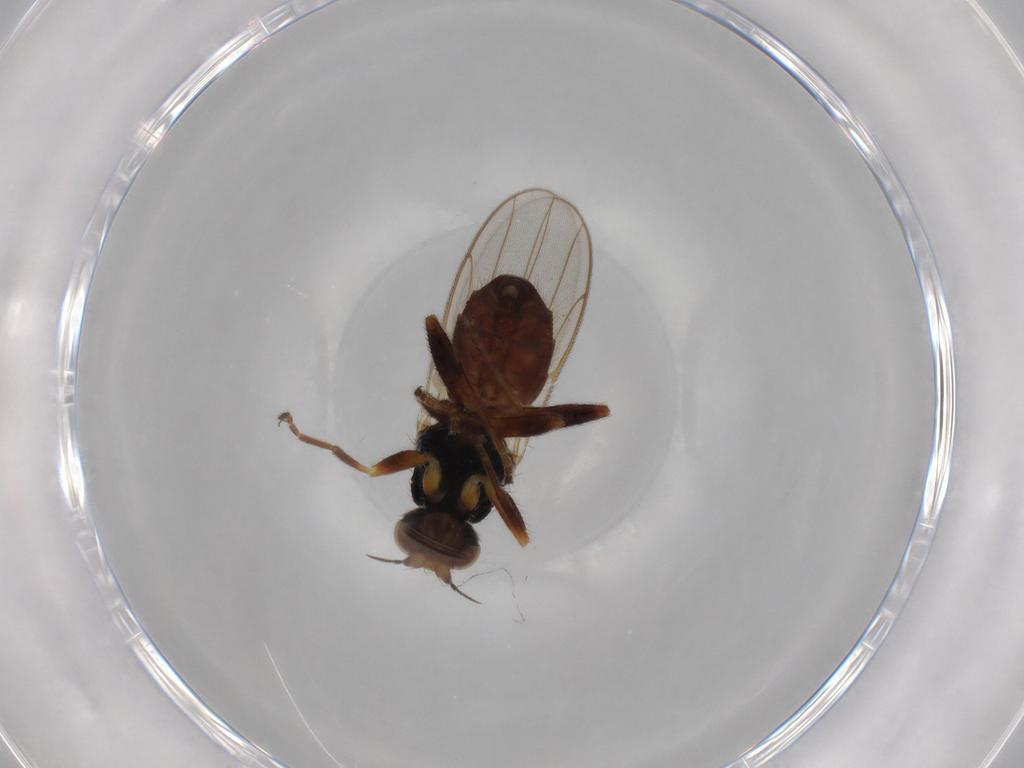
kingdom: Animalia
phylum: Arthropoda
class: Insecta
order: Diptera
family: Chloropidae
